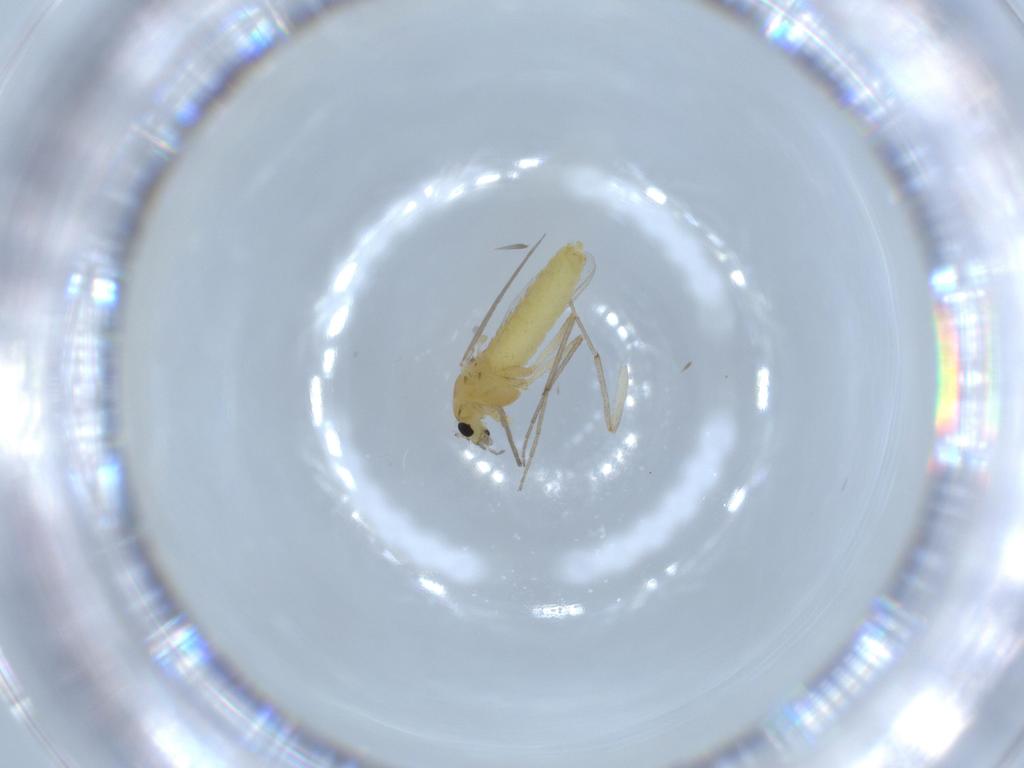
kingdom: Animalia
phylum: Arthropoda
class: Insecta
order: Diptera
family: Chironomidae
